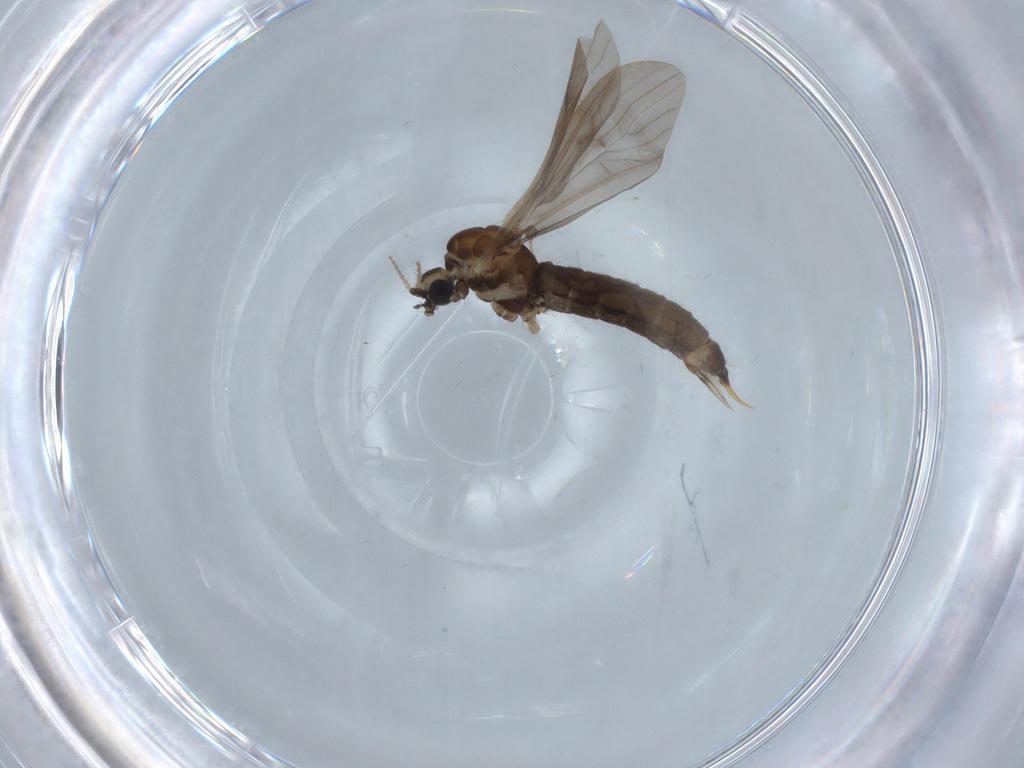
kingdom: Animalia
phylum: Arthropoda
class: Insecta
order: Diptera
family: Limoniidae
